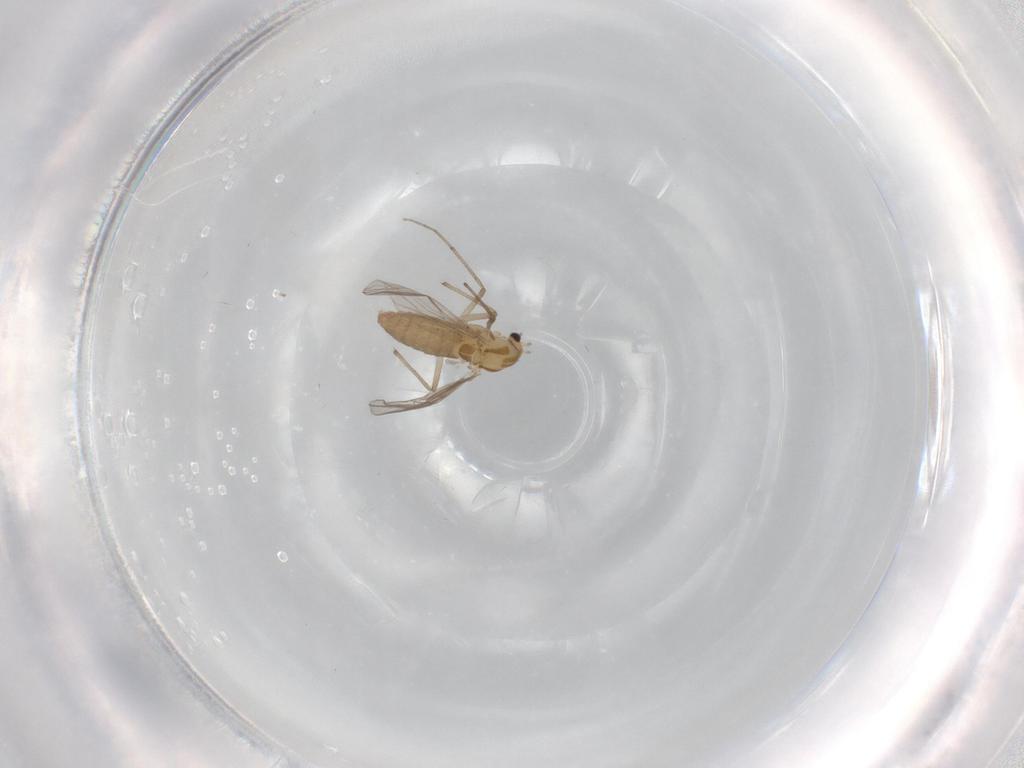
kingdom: Animalia
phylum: Arthropoda
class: Insecta
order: Diptera
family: Chironomidae
